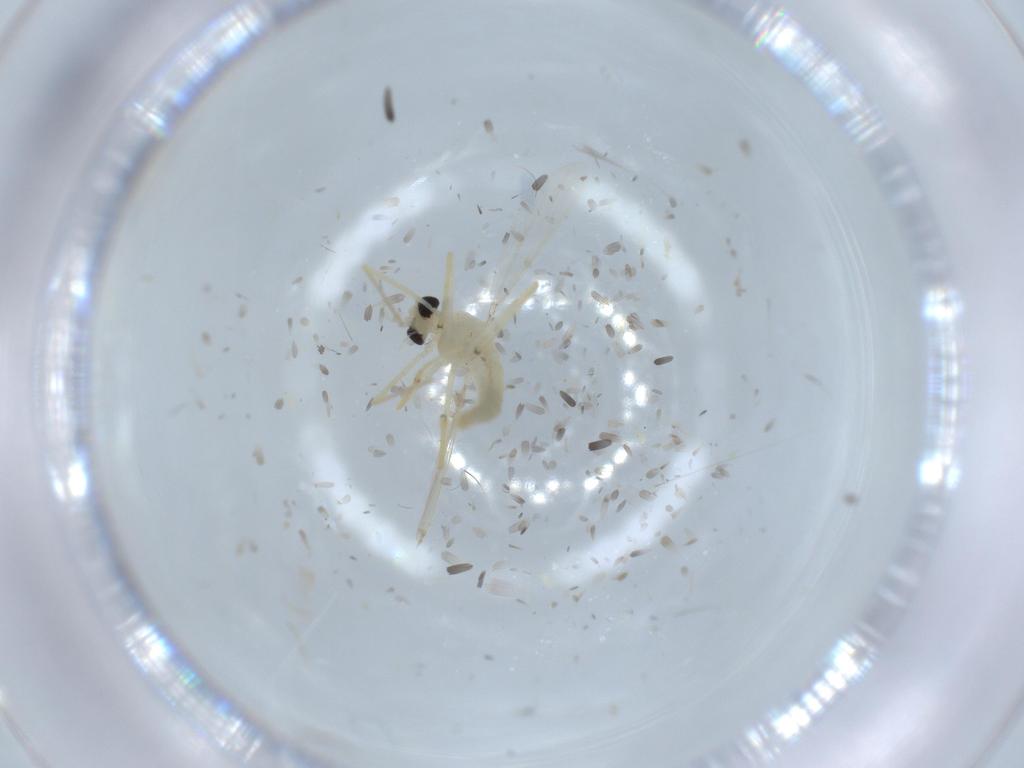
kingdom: Animalia
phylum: Arthropoda
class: Insecta
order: Diptera
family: Chironomidae
